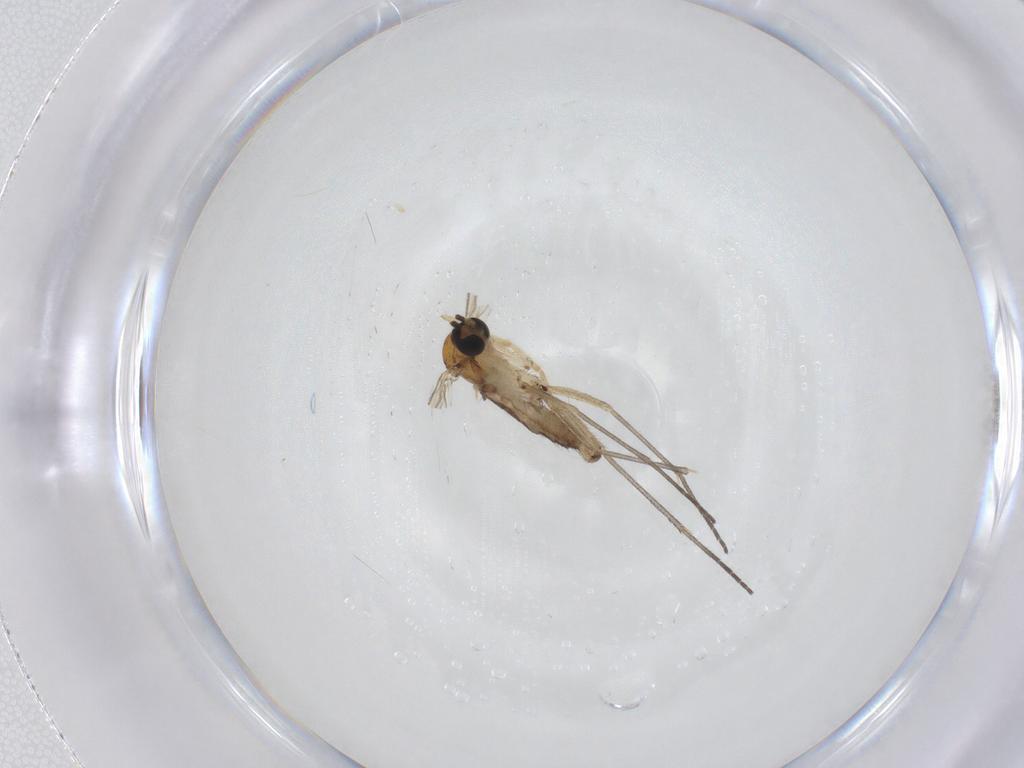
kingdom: Animalia
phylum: Arthropoda
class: Insecta
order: Diptera
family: Sciaridae
